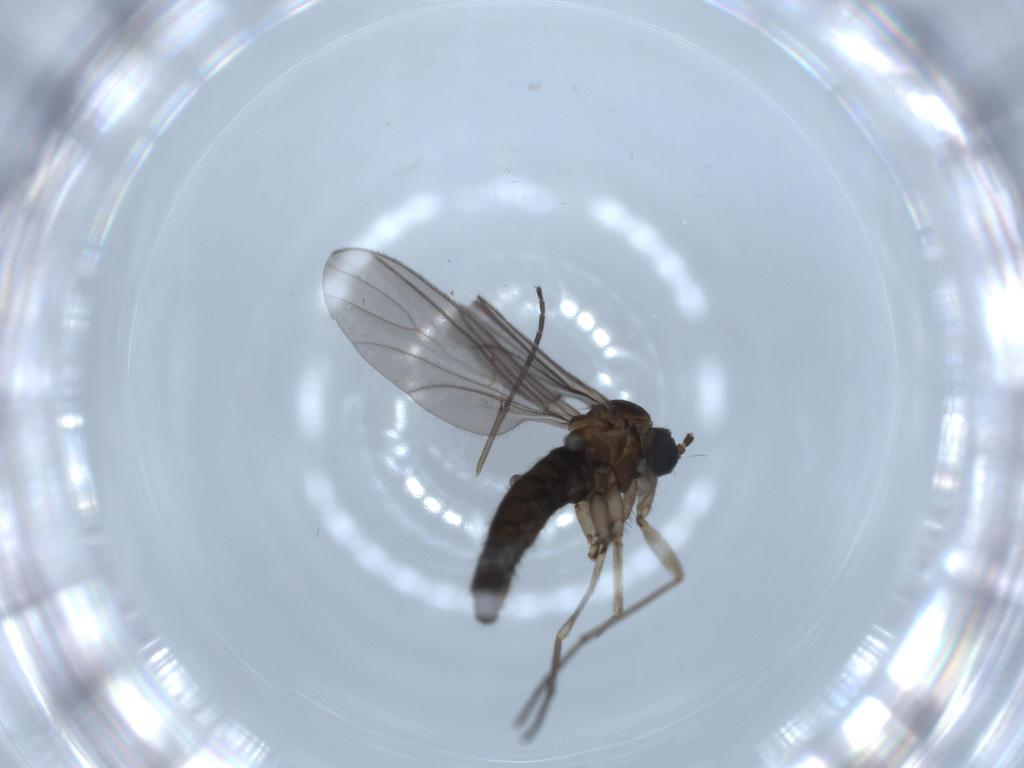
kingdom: Animalia
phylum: Arthropoda
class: Insecta
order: Diptera
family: Sciaridae
